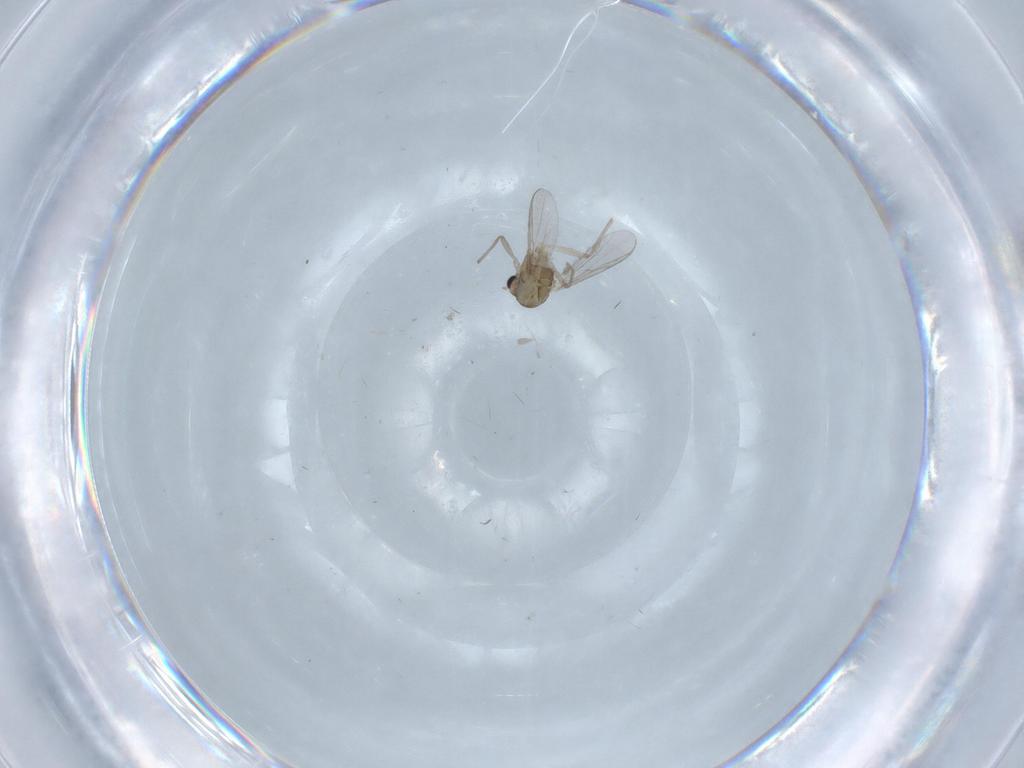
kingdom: Animalia
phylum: Arthropoda
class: Insecta
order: Diptera
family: Chironomidae
